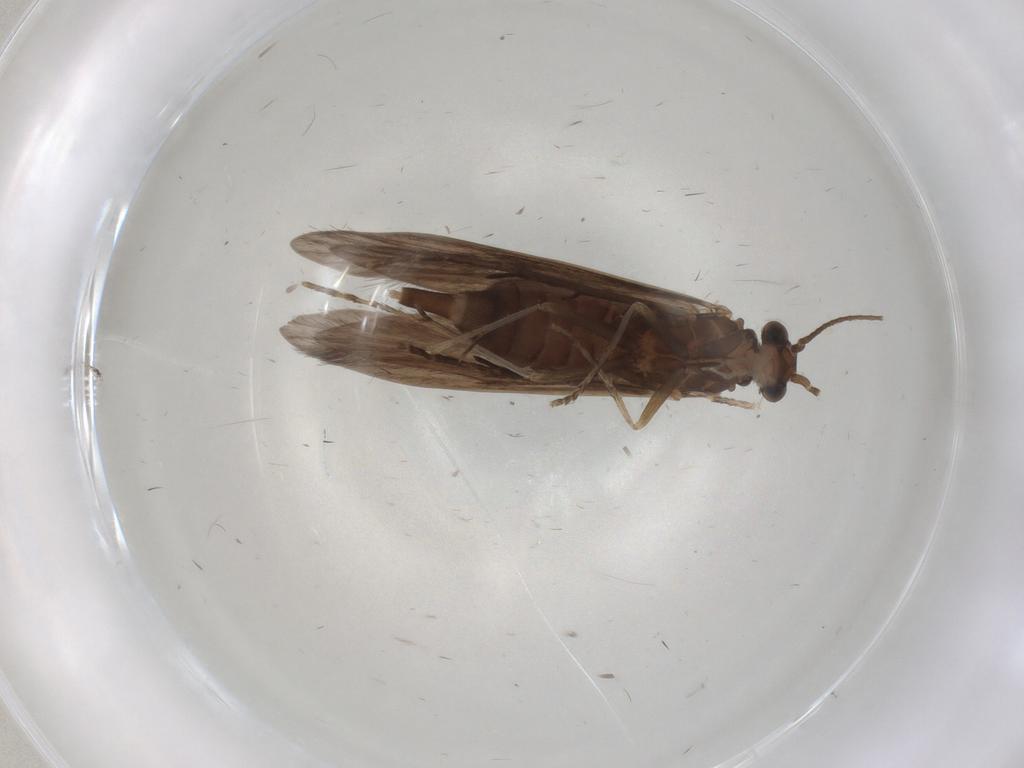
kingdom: Animalia
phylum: Arthropoda
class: Insecta
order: Trichoptera
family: Xiphocentronidae
